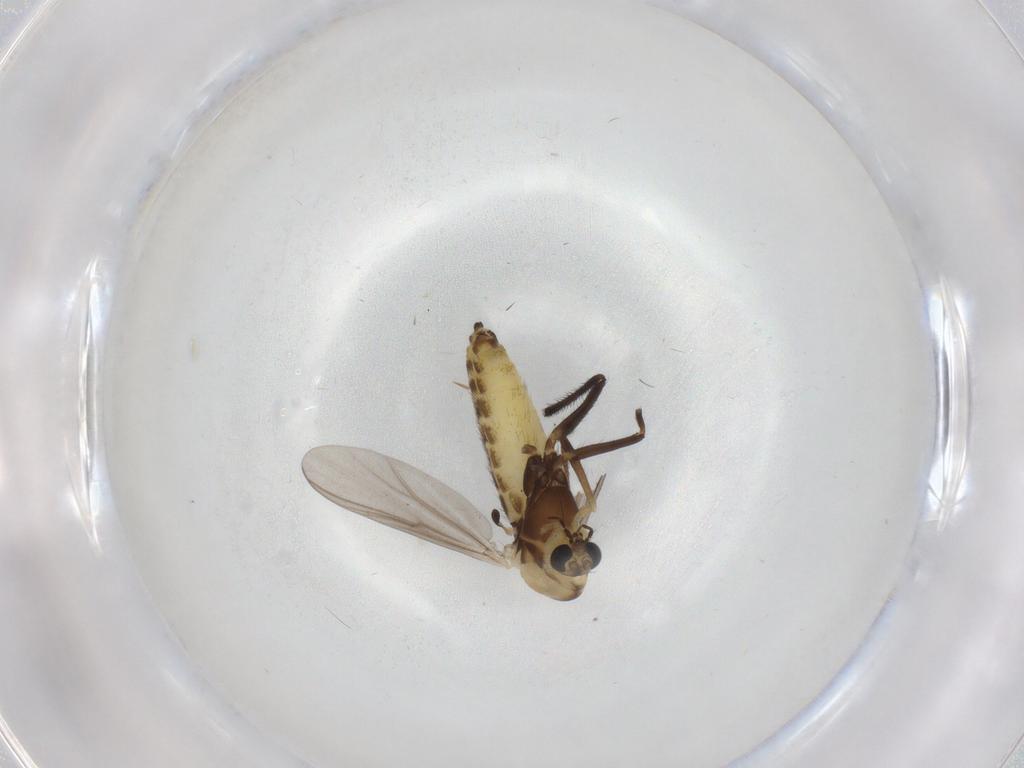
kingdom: Animalia
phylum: Arthropoda
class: Insecta
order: Diptera
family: Chironomidae
